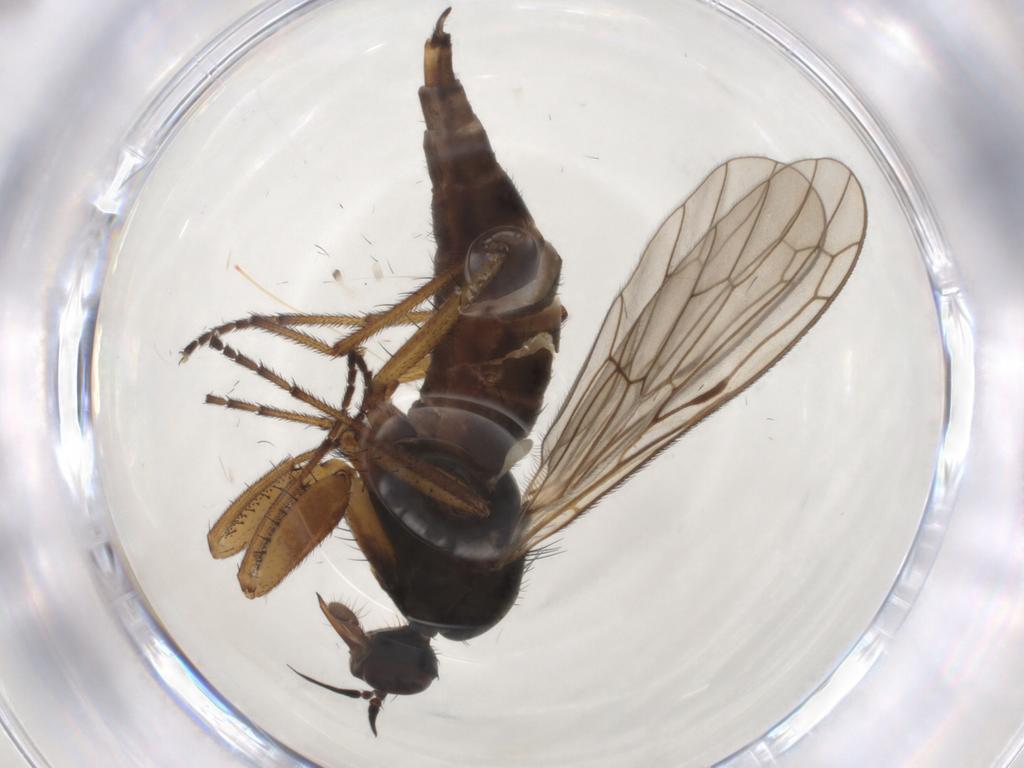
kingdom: Animalia
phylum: Arthropoda
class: Insecta
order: Diptera
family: Cecidomyiidae
